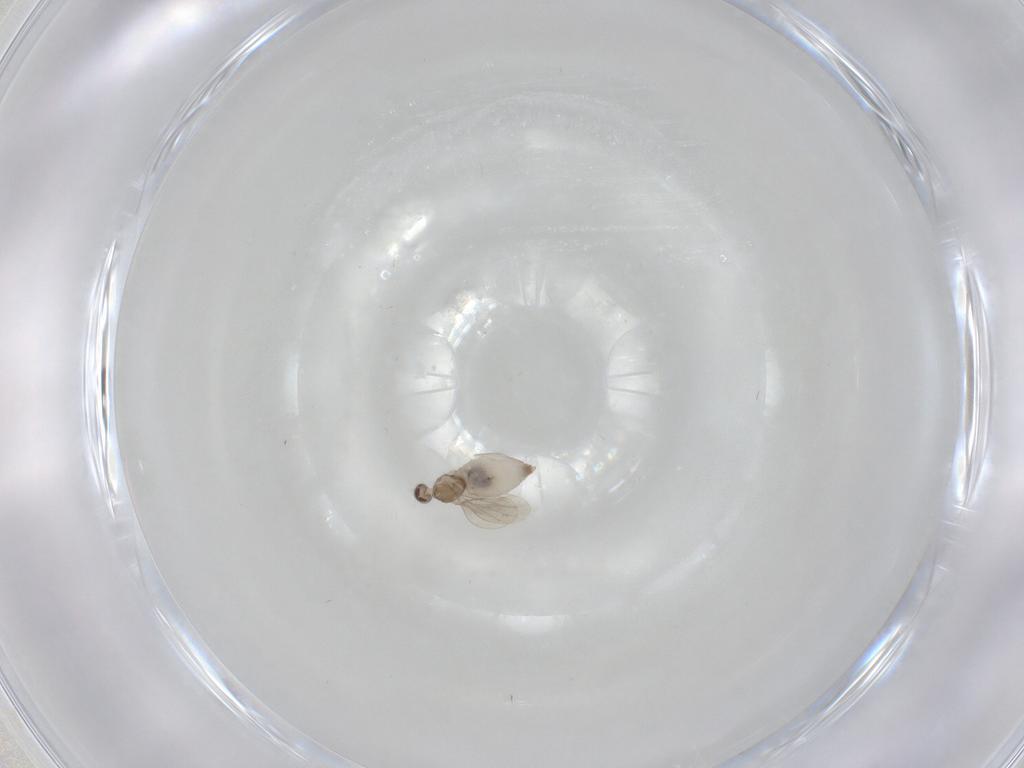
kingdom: Animalia
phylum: Arthropoda
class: Insecta
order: Diptera
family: Cecidomyiidae
